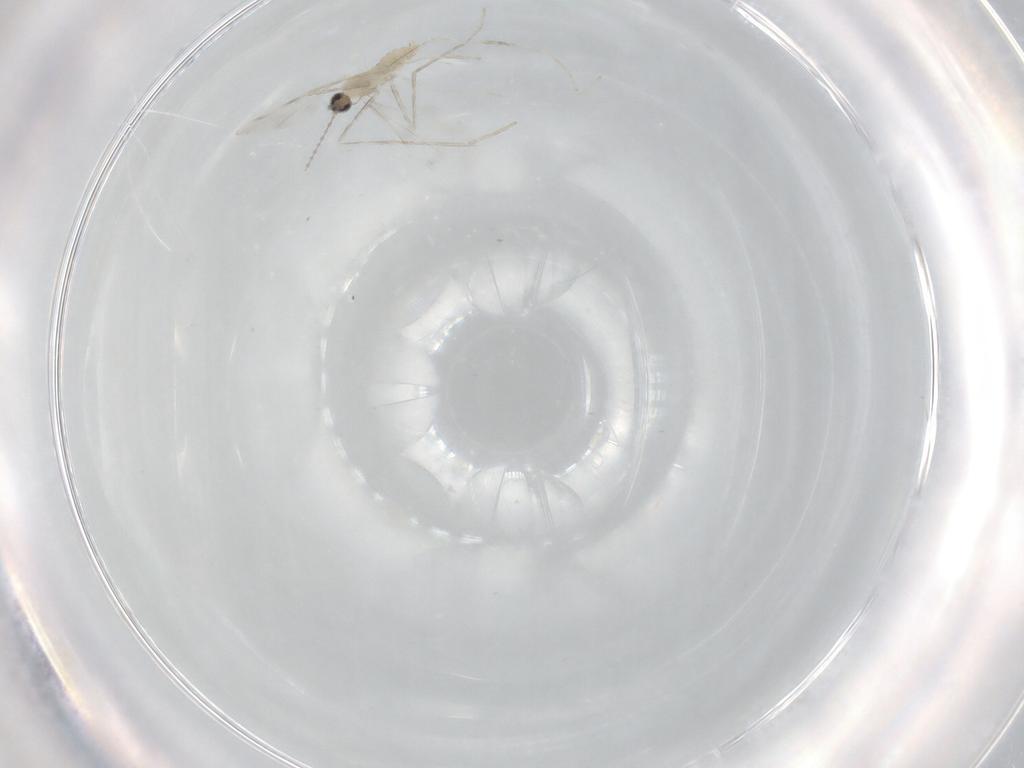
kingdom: Animalia
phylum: Arthropoda
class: Insecta
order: Diptera
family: Cecidomyiidae
